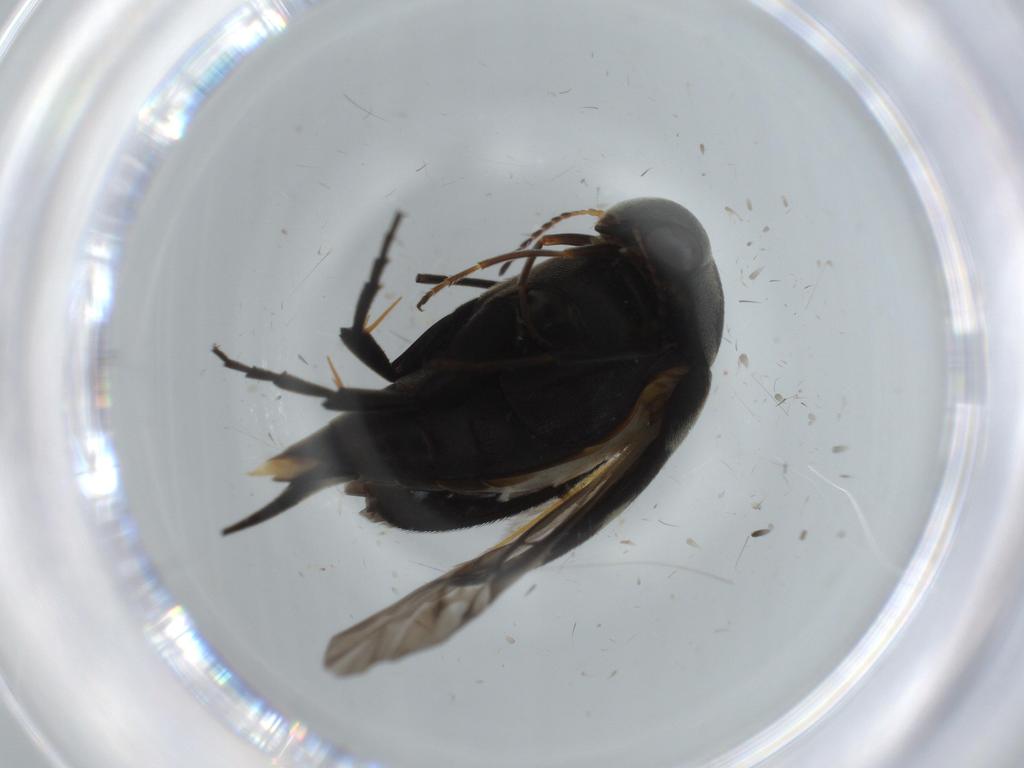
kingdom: Animalia
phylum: Arthropoda
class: Insecta
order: Coleoptera
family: Mordellidae
